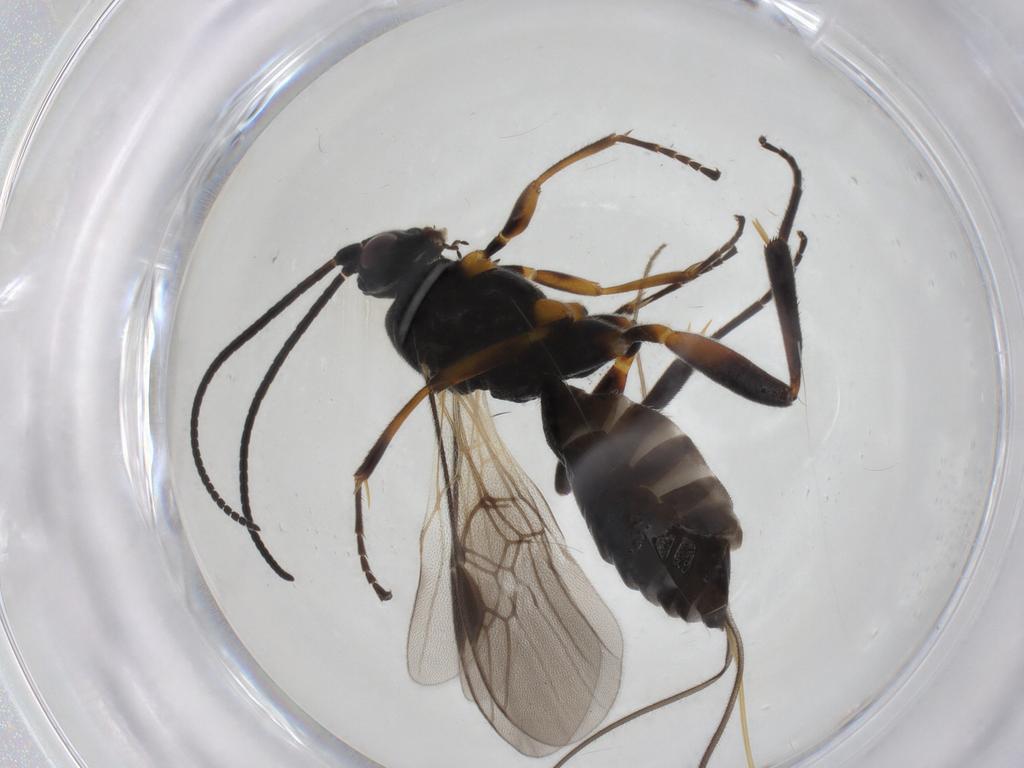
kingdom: Animalia
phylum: Arthropoda
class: Insecta
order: Hymenoptera
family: Braconidae
